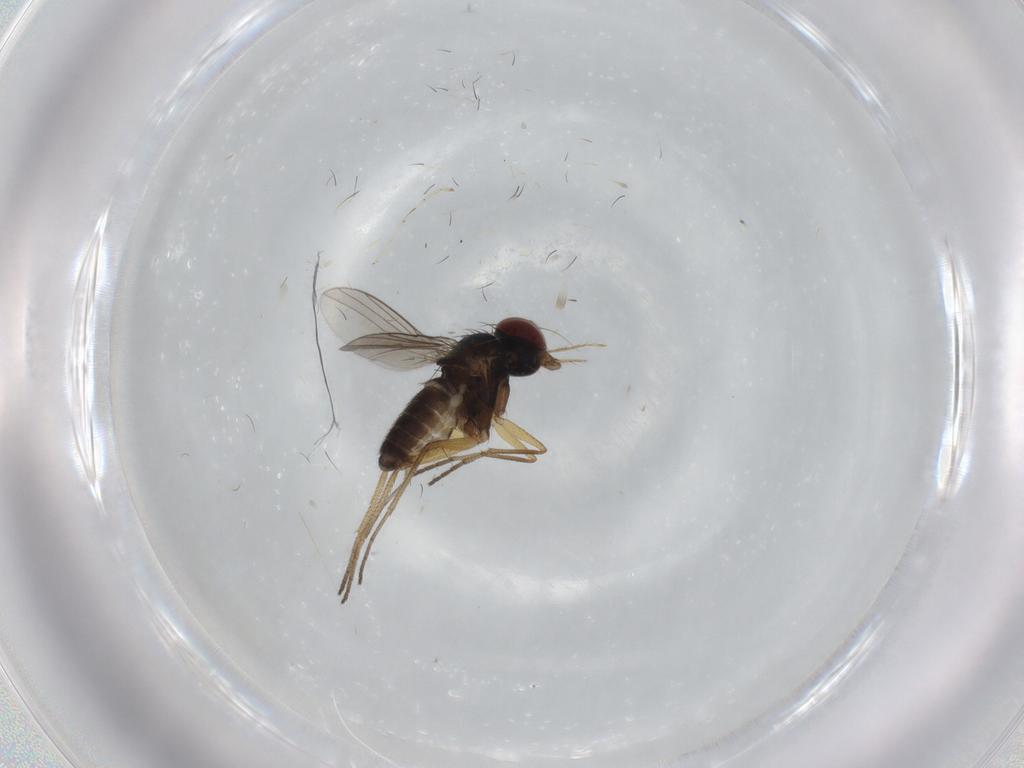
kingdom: Animalia
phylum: Arthropoda
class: Insecta
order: Diptera
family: Dolichopodidae
